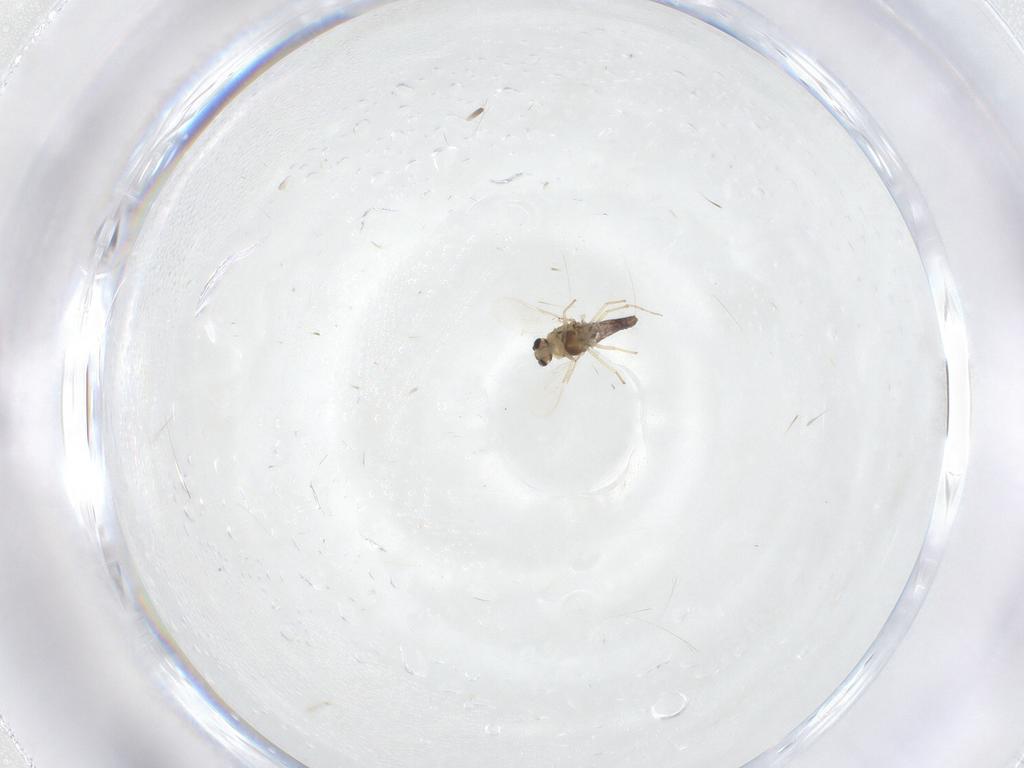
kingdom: Animalia
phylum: Arthropoda
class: Insecta
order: Diptera
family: Chironomidae
